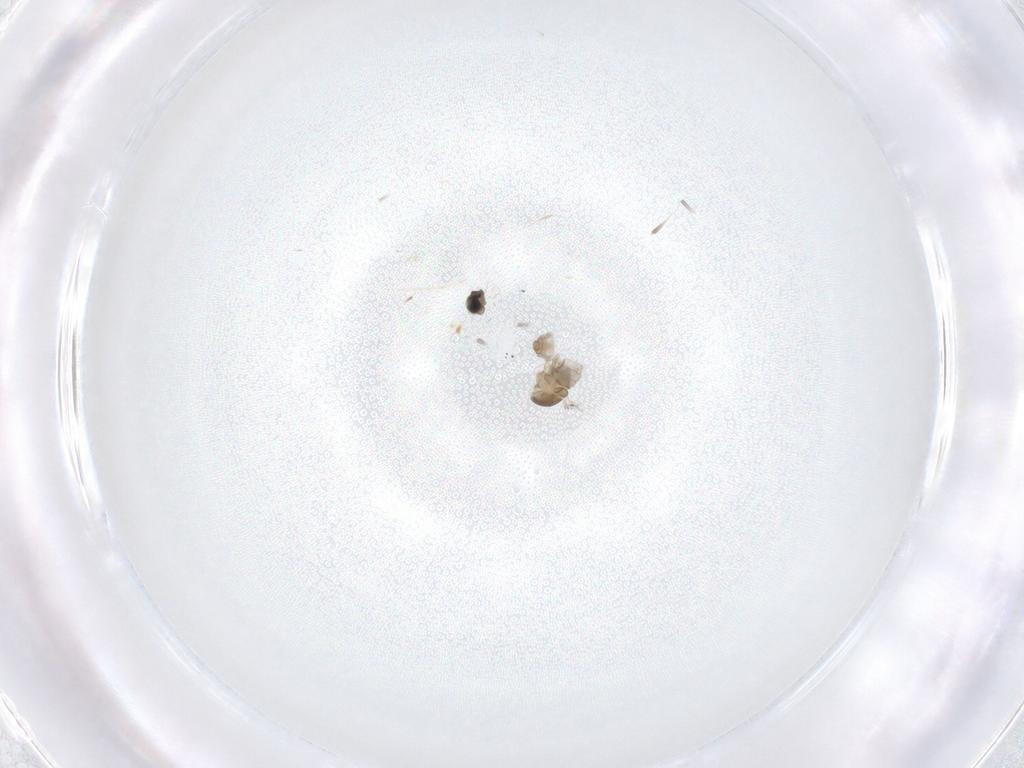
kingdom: Animalia
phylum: Arthropoda
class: Insecta
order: Diptera
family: Cecidomyiidae
